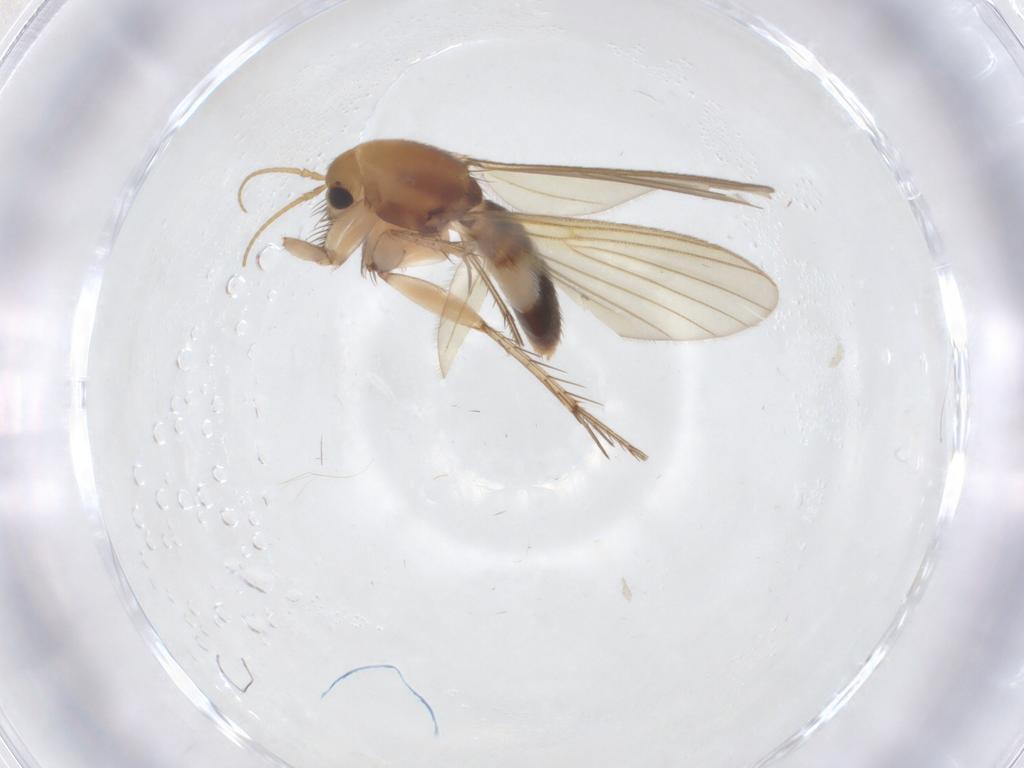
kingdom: Animalia
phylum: Arthropoda
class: Insecta
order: Diptera
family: Mycetophilidae
